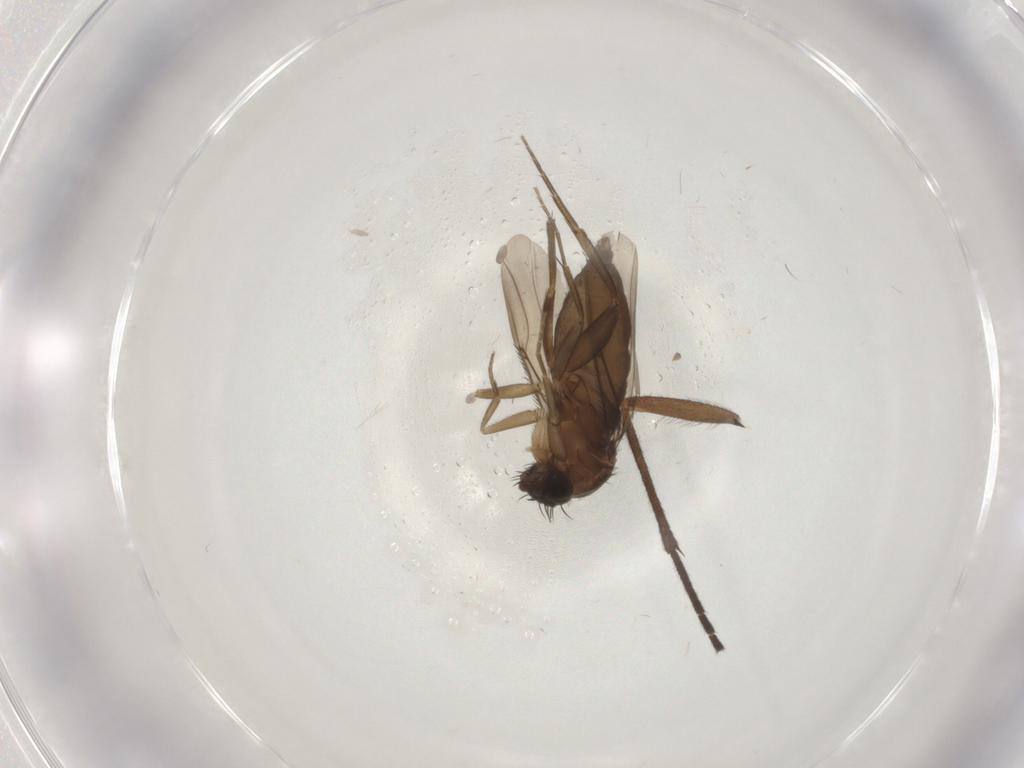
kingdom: Animalia
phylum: Arthropoda
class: Insecta
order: Diptera
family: Phoridae
